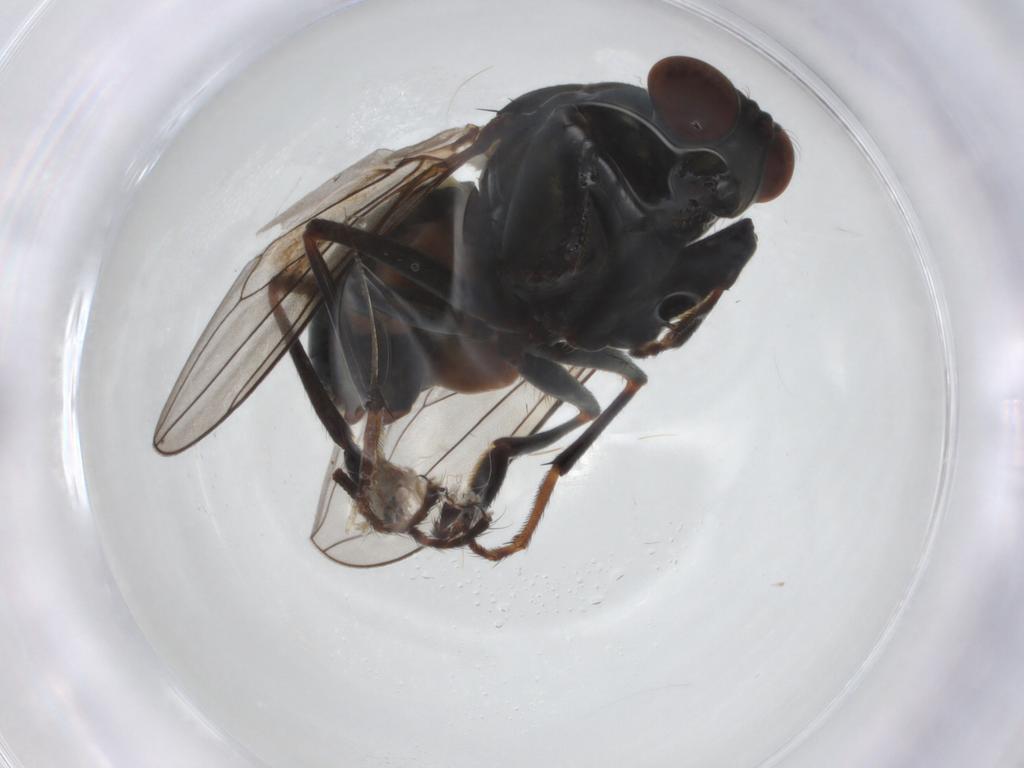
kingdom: Animalia
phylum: Arthropoda
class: Insecta
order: Diptera
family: Ephydridae
